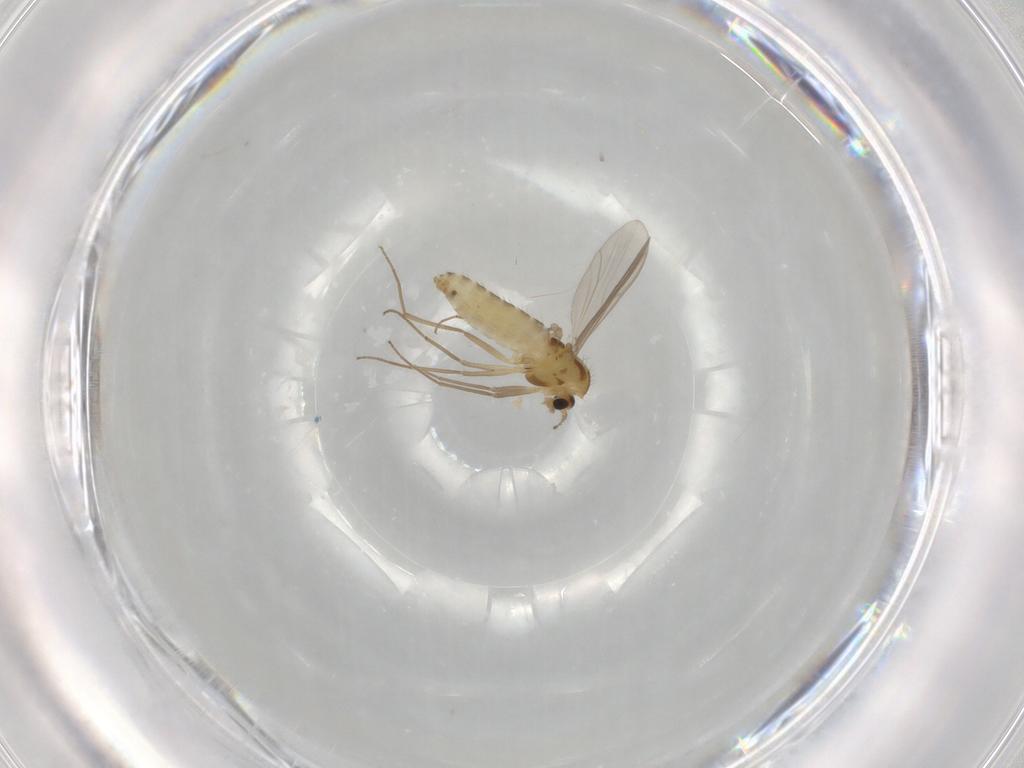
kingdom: Animalia
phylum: Arthropoda
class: Insecta
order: Diptera
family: Chironomidae
